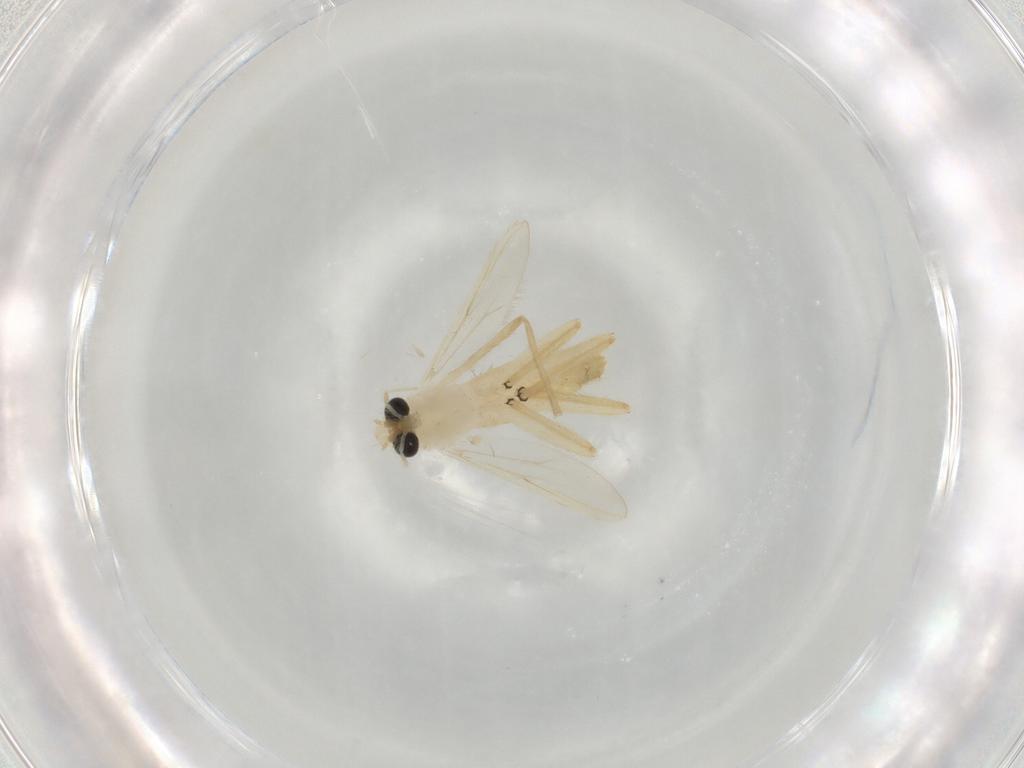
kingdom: Animalia
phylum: Arthropoda
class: Insecta
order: Diptera
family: Chironomidae
